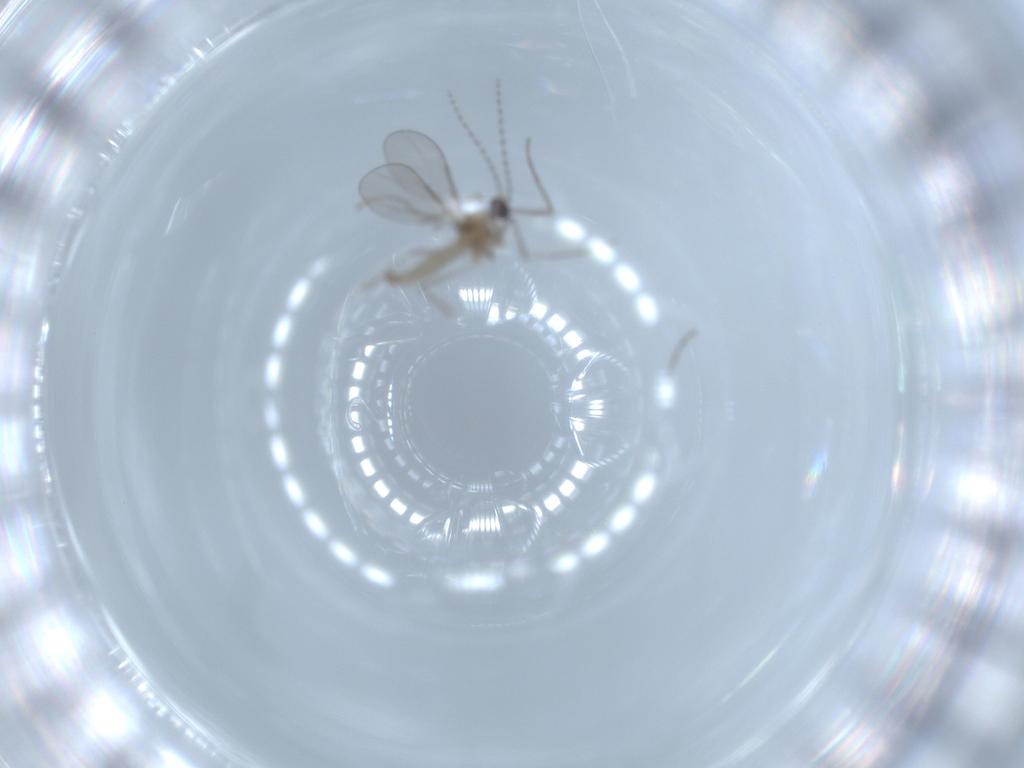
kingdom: Animalia
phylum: Arthropoda
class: Insecta
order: Diptera
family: Cecidomyiidae
